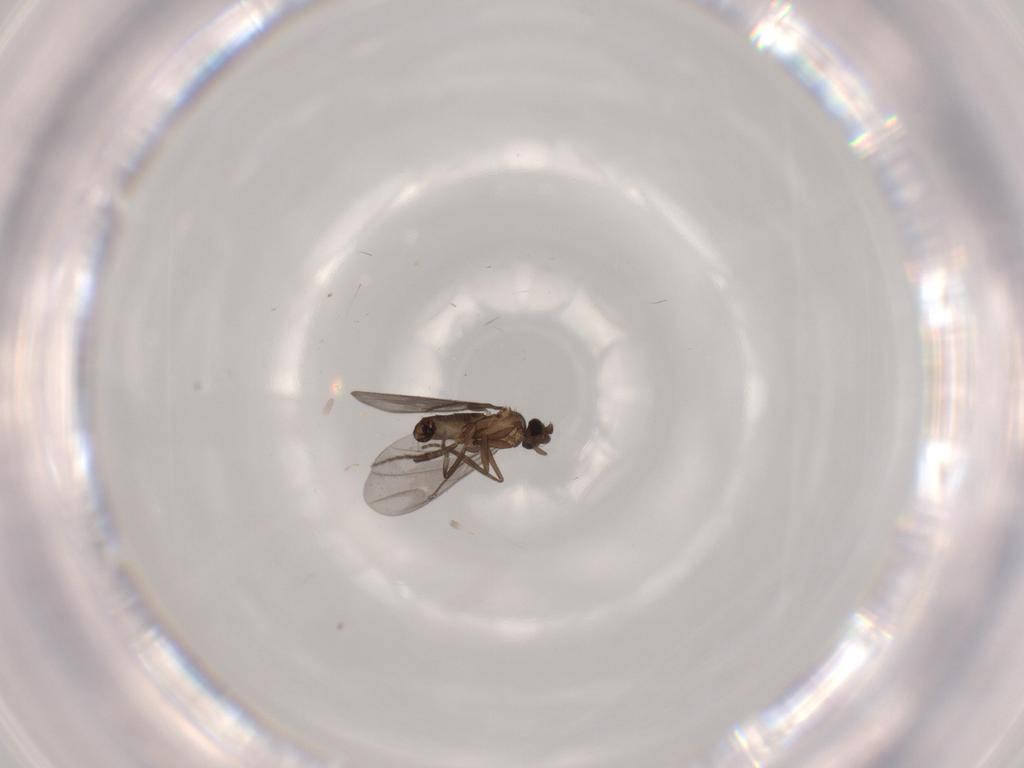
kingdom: Animalia
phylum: Arthropoda
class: Insecta
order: Diptera
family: Phoridae
